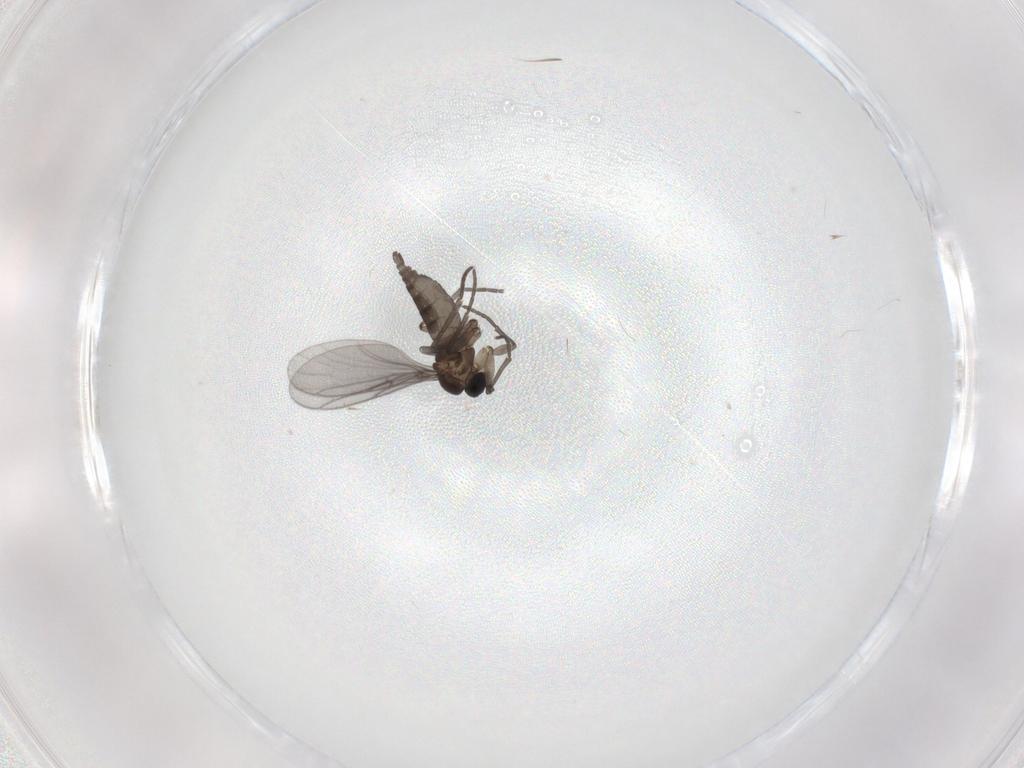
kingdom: Animalia
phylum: Arthropoda
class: Insecta
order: Diptera
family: Chironomidae
